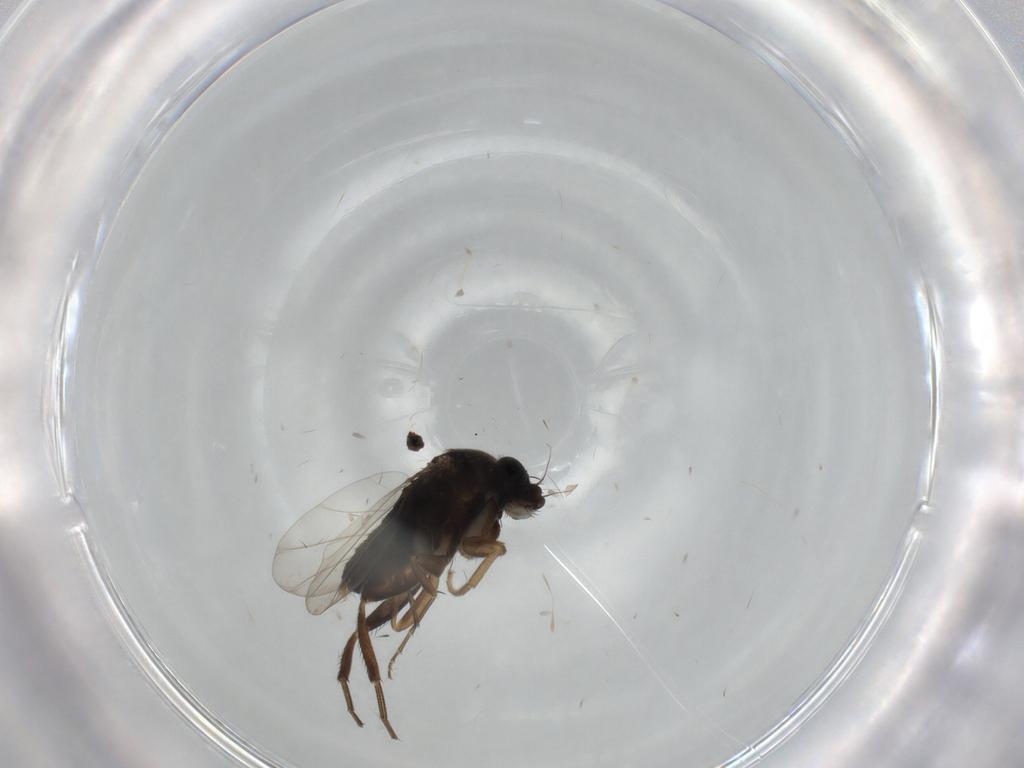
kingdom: Animalia
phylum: Arthropoda
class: Insecta
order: Diptera
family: Phoridae
